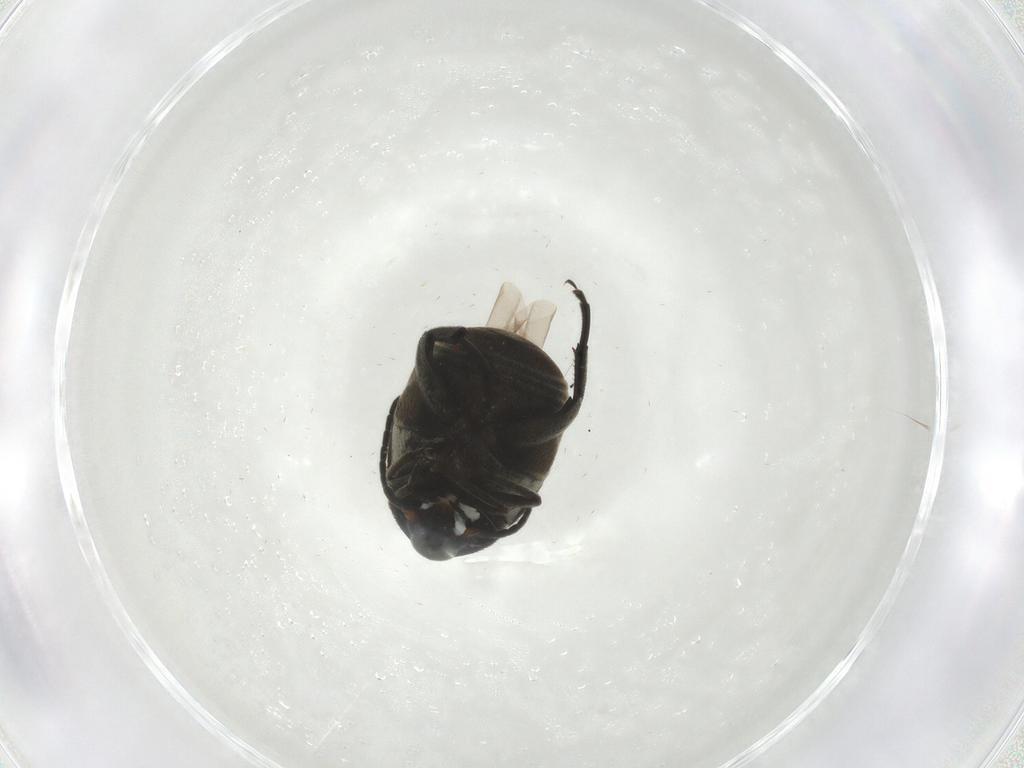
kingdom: Animalia
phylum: Arthropoda
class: Insecta
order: Coleoptera
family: Chrysomelidae
